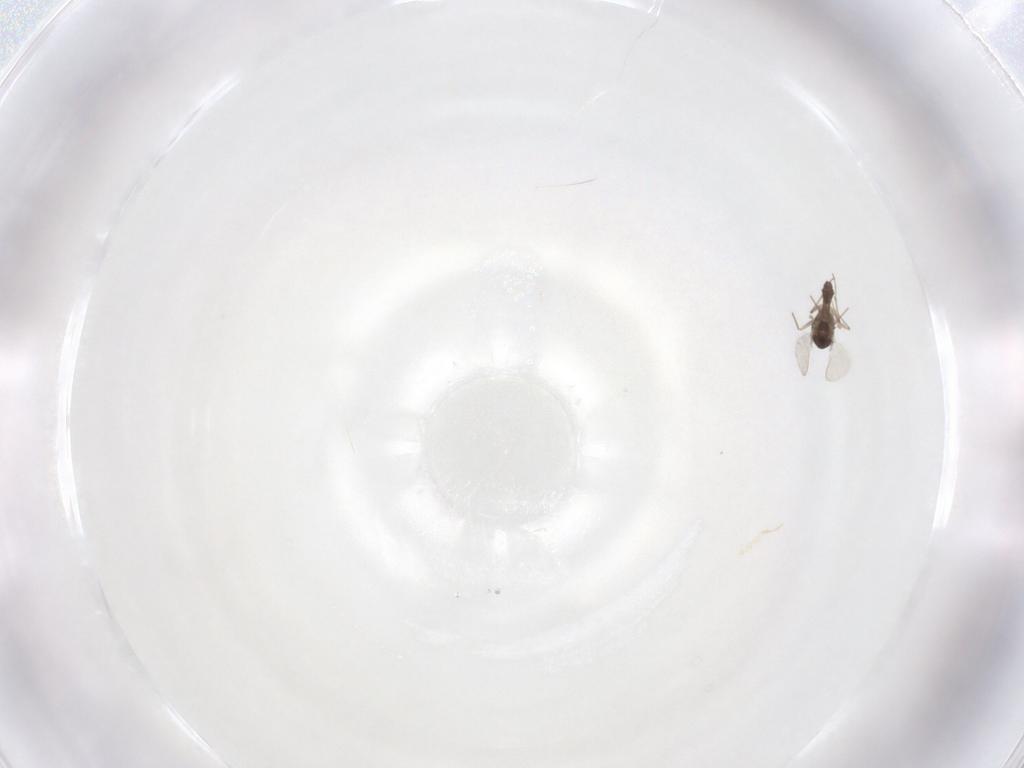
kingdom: Animalia
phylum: Arthropoda
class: Insecta
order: Diptera
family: Chironomidae
